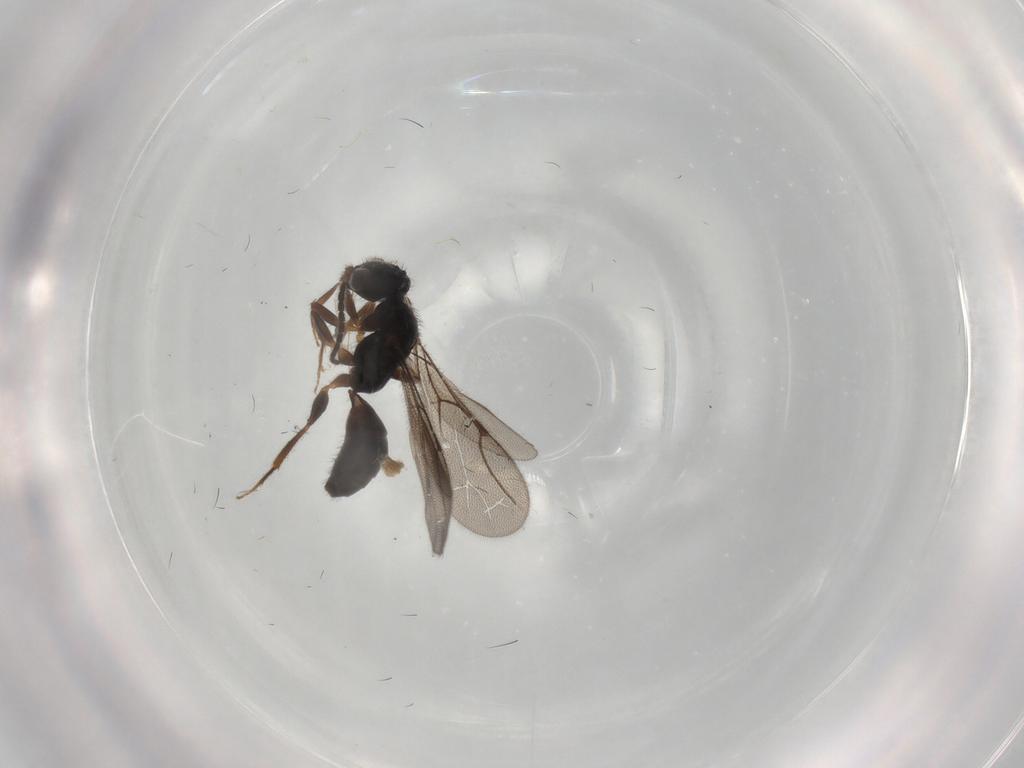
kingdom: Animalia
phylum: Arthropoda
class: Insecta
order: Hymenoptera
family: Bethylidae
